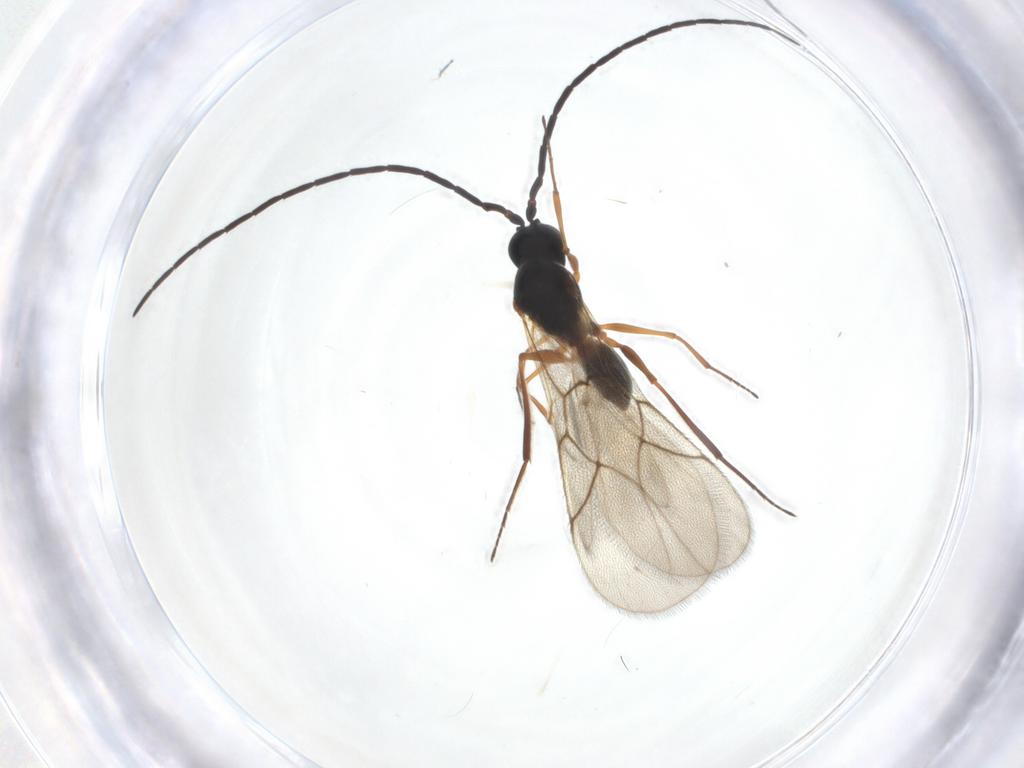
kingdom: Animalia
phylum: Arthropoda
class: Insecta
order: Hymenoptera
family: Figitidae
